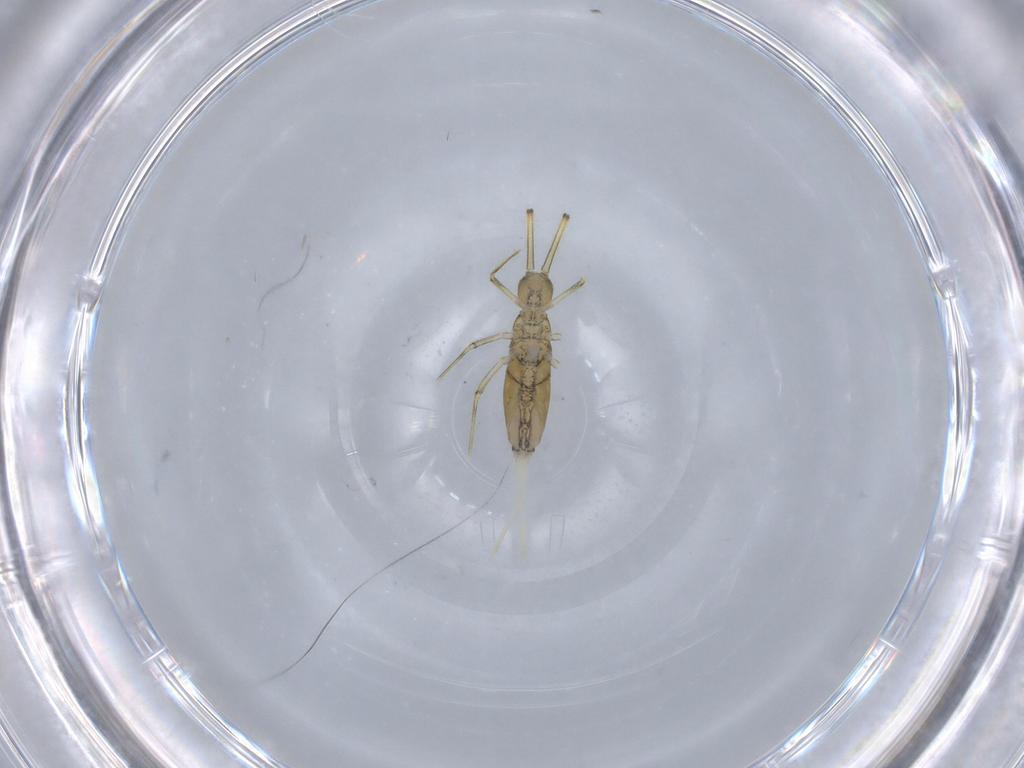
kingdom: Animalia
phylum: Arthropoda
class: Collembola
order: Entomobryomorpha
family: Paronellidae
